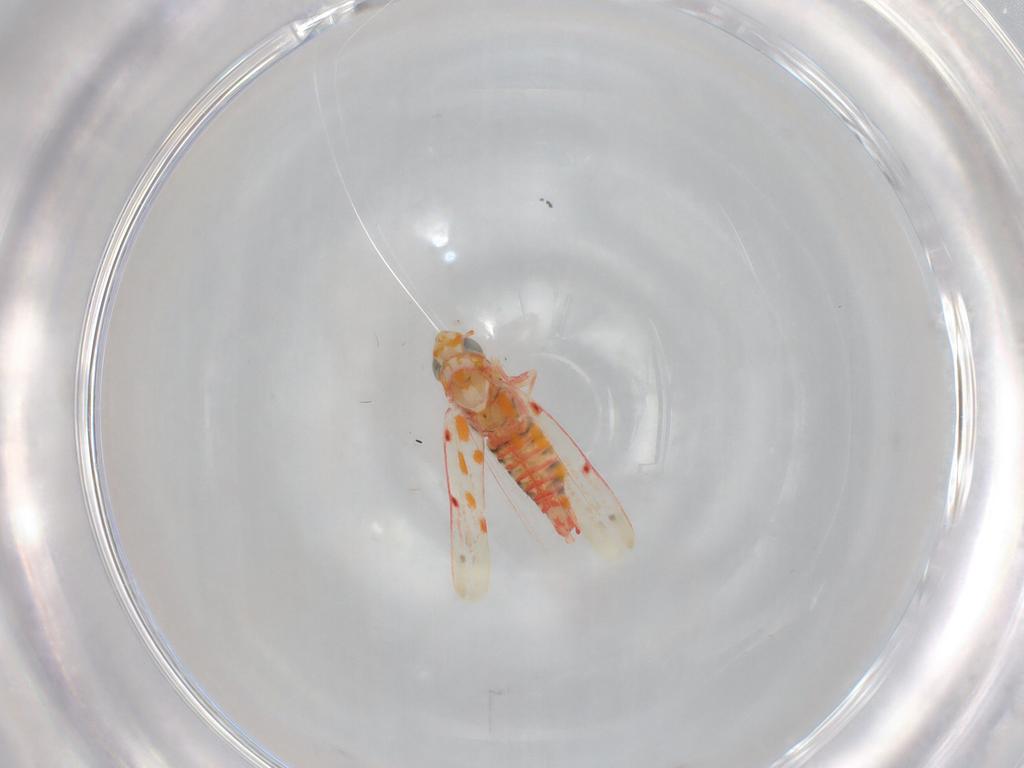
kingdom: Animalia
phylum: Arthropoda
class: Insecta
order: Hemiptera
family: Cicadellidae
